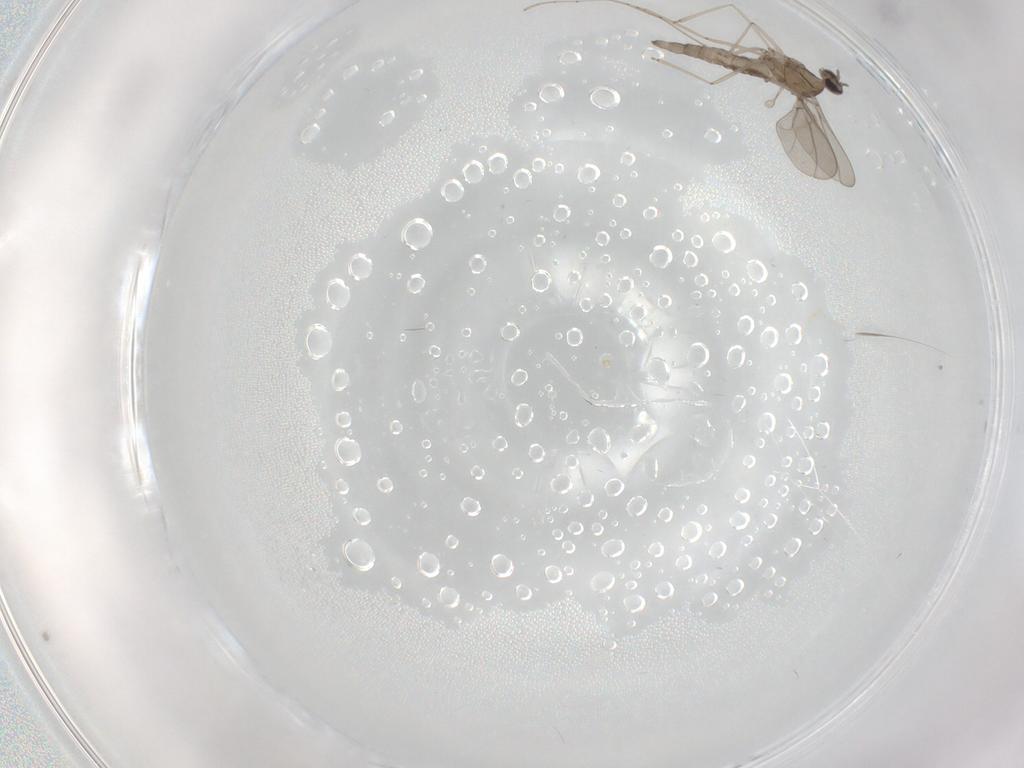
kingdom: Animalia
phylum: Arthropoda
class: Insecta
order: Diptera
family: Cecidomyiidae
